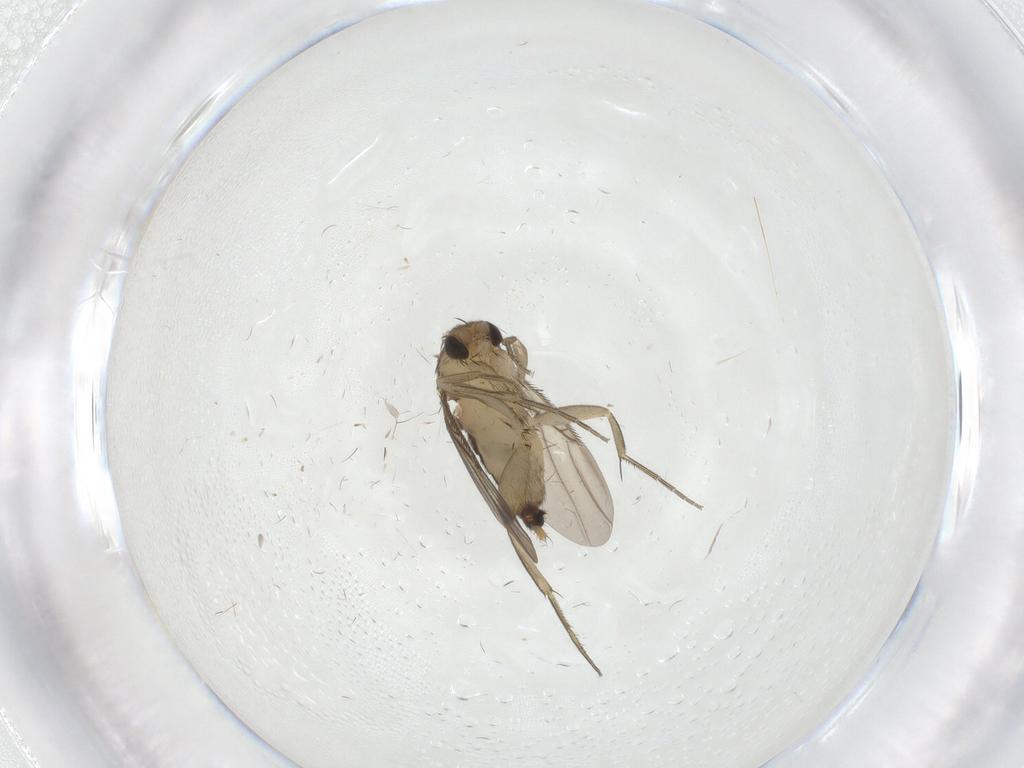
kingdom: Animalia
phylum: Arthropoda
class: Insecta
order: Diptera
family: Phoridae
